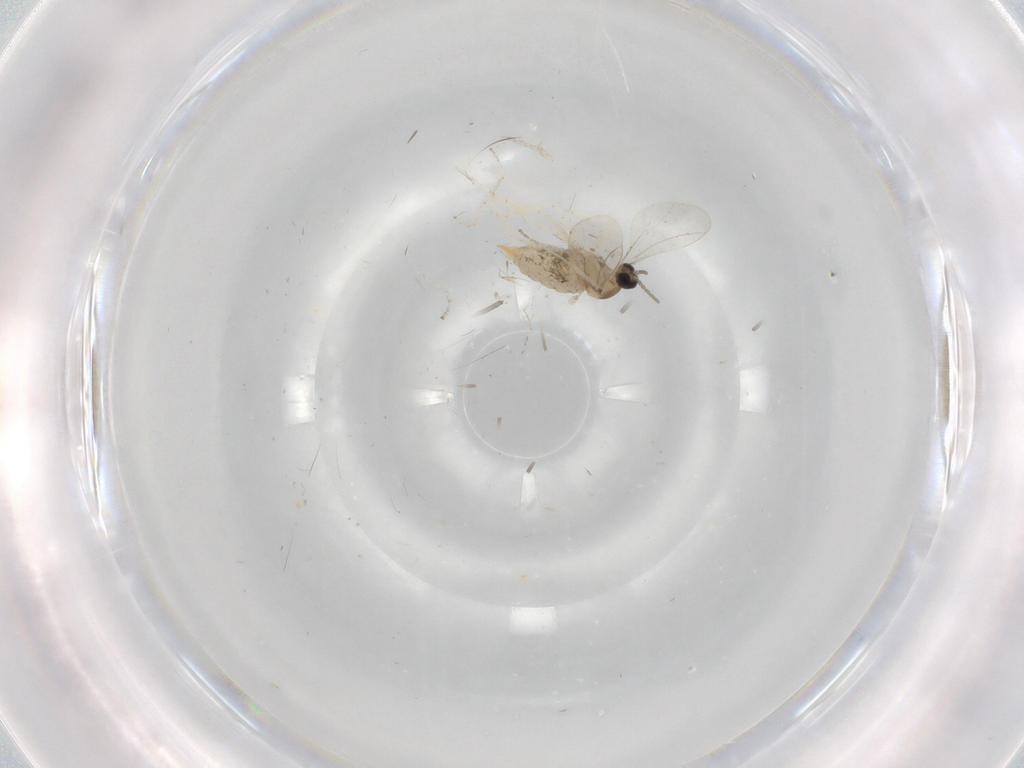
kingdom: Animalia
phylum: Arthropoda
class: Insecta
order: Diptera
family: Cecidomyiidae
